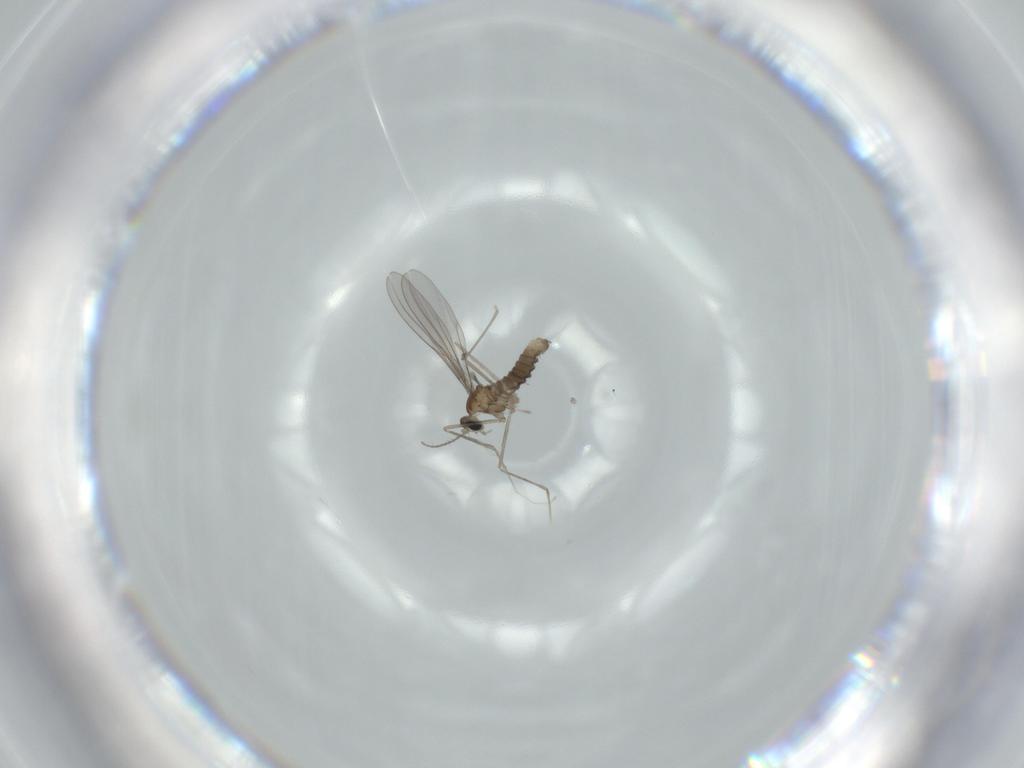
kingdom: Animalia
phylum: Arthropoda
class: Insecta
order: Diptera
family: Cecidomyiidae
